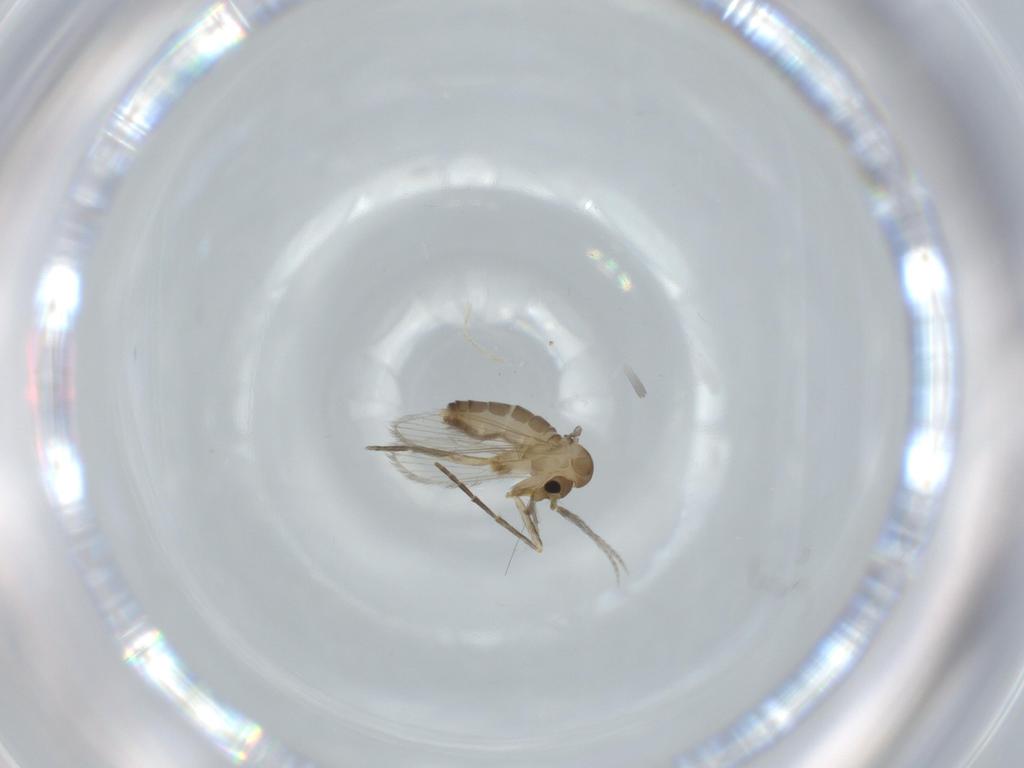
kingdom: Animalia
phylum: Arthropoda
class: Insecta
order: Diptera
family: Psychodidae
